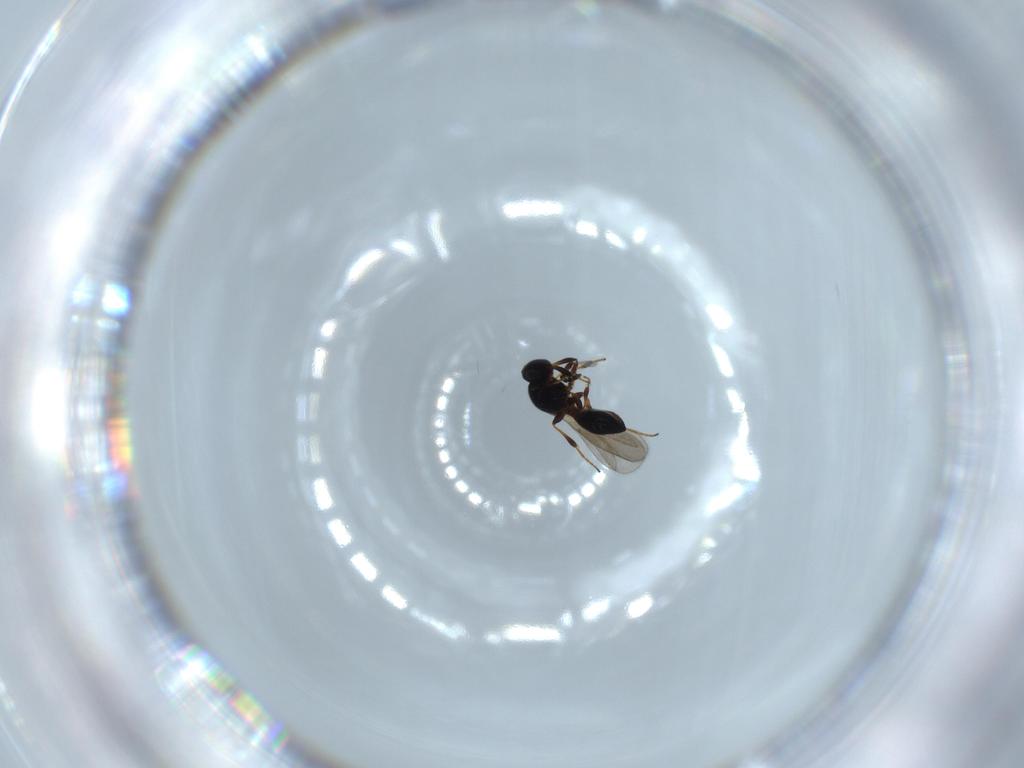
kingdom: Animalia
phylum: Arthropoda
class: Insecta
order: Hymenoptera
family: Platygastridae
